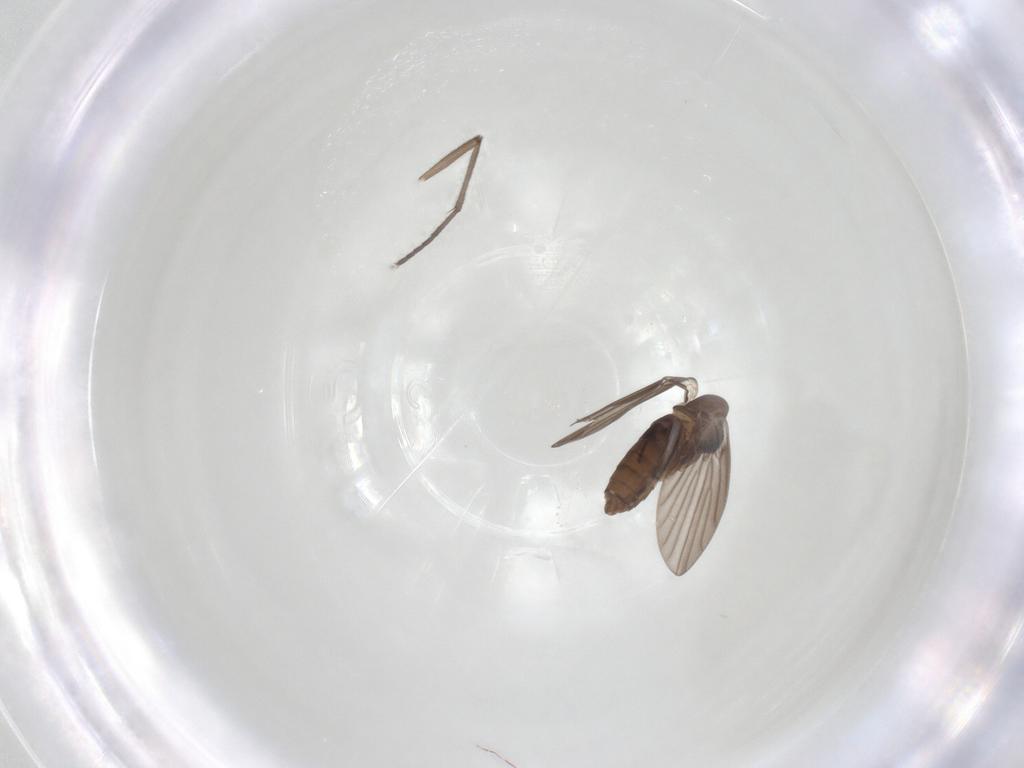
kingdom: Animalia
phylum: Arthropoda
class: Insecta
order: Diptera
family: Psychodidae
